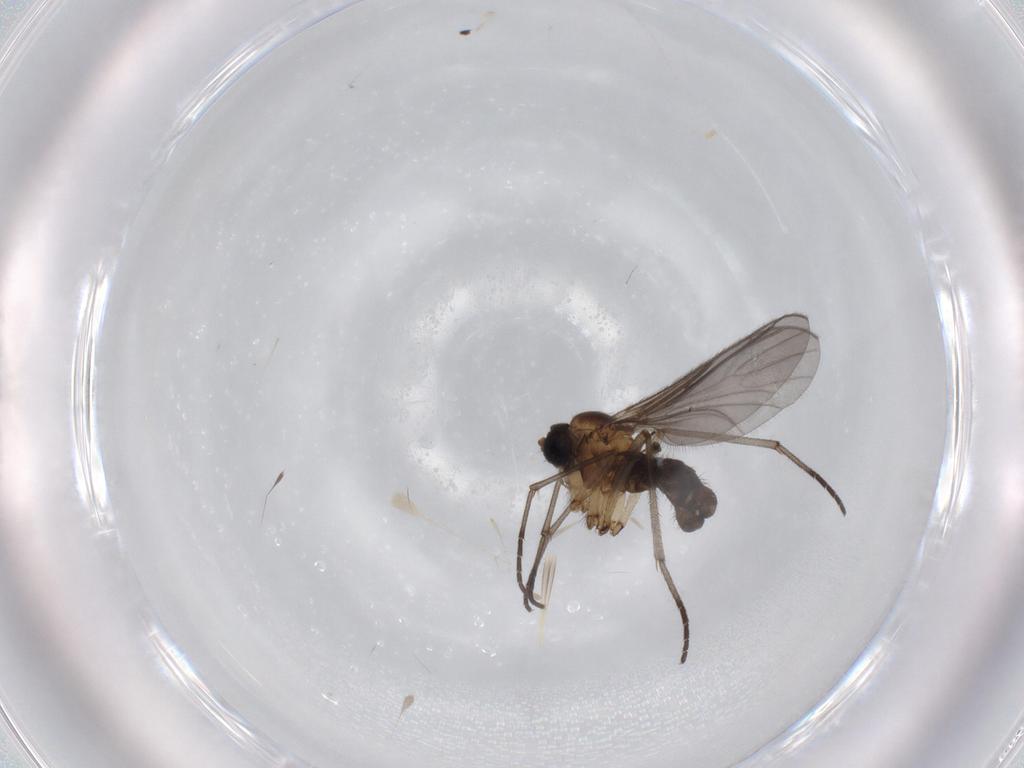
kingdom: Animalia
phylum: Arthropoda
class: Insecta
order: Diptera
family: Sciaridae
